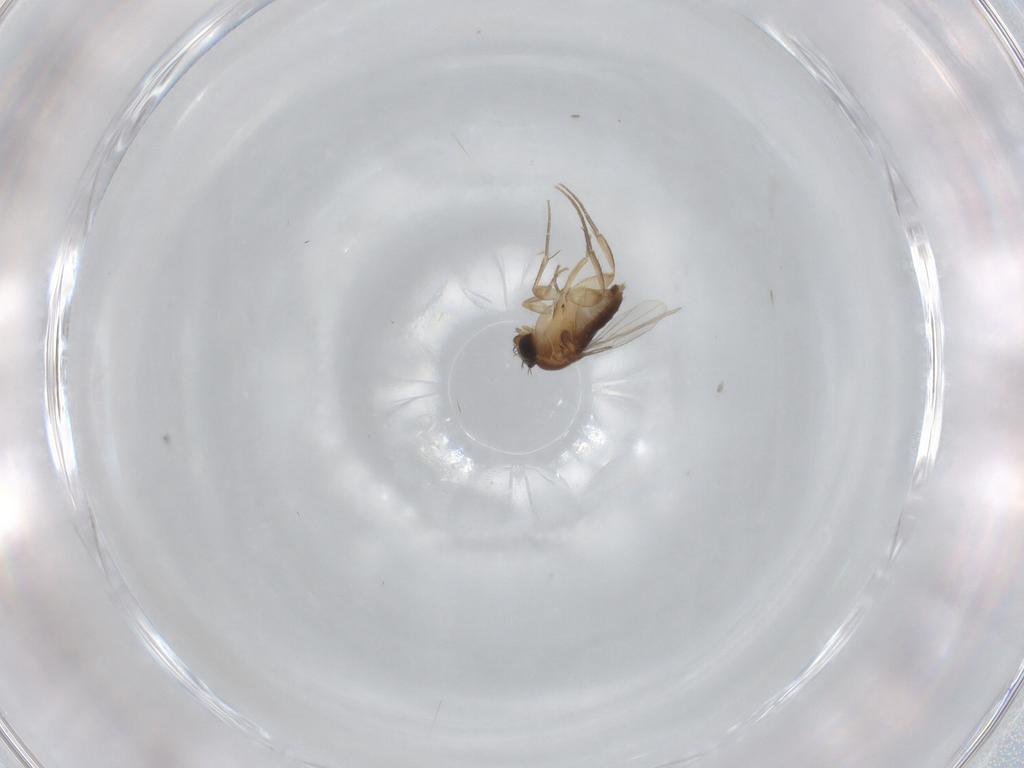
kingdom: Animalia
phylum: Arthropoda
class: Insecta
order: Diptera
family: Phoridae
